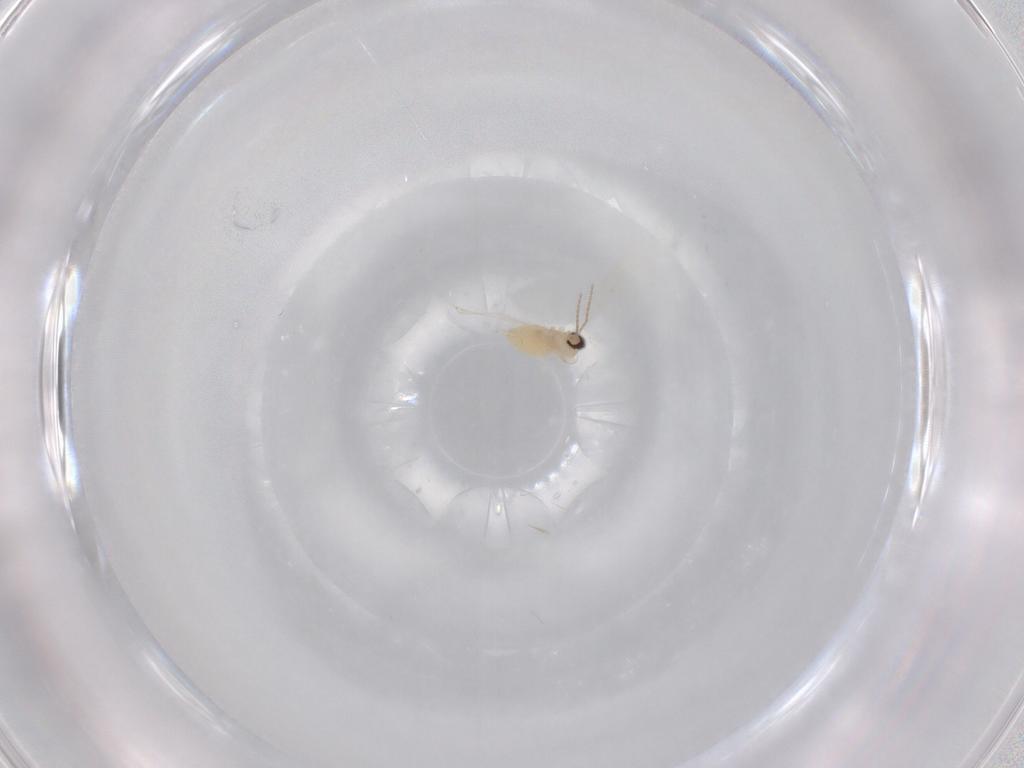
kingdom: Animalia
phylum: Arthropoda
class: Insecta
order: Diptera
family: Cecidomyiidae
